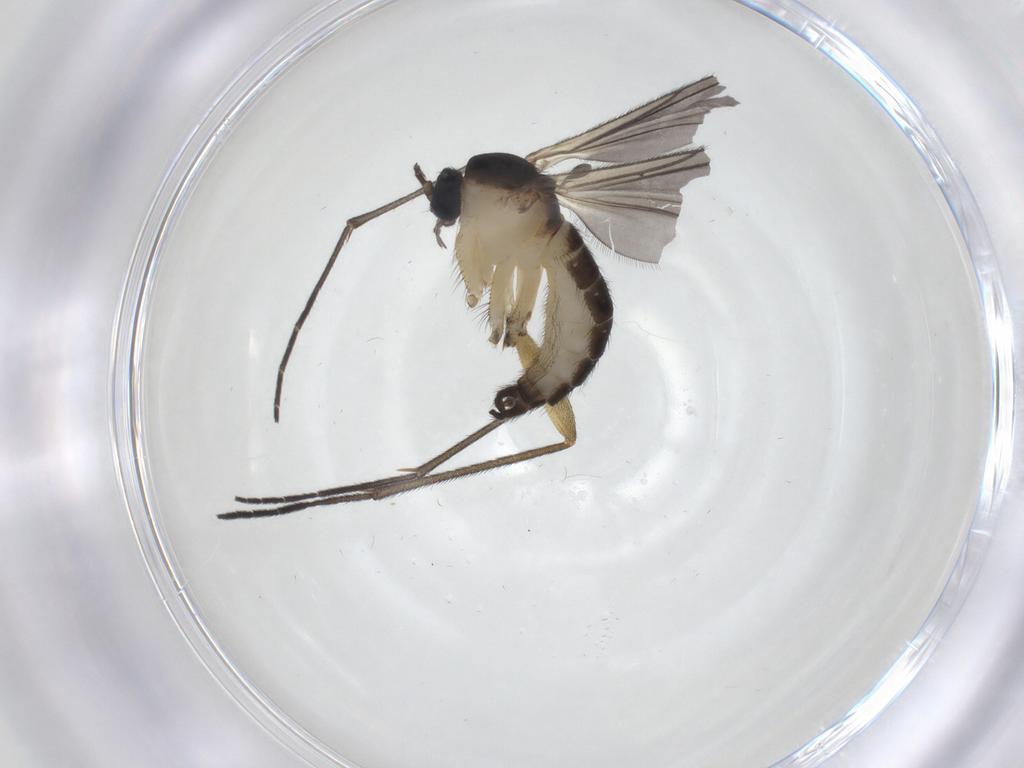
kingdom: Animalia
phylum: Arthropoda
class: Insecta
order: Diptera
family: Sciaridae
